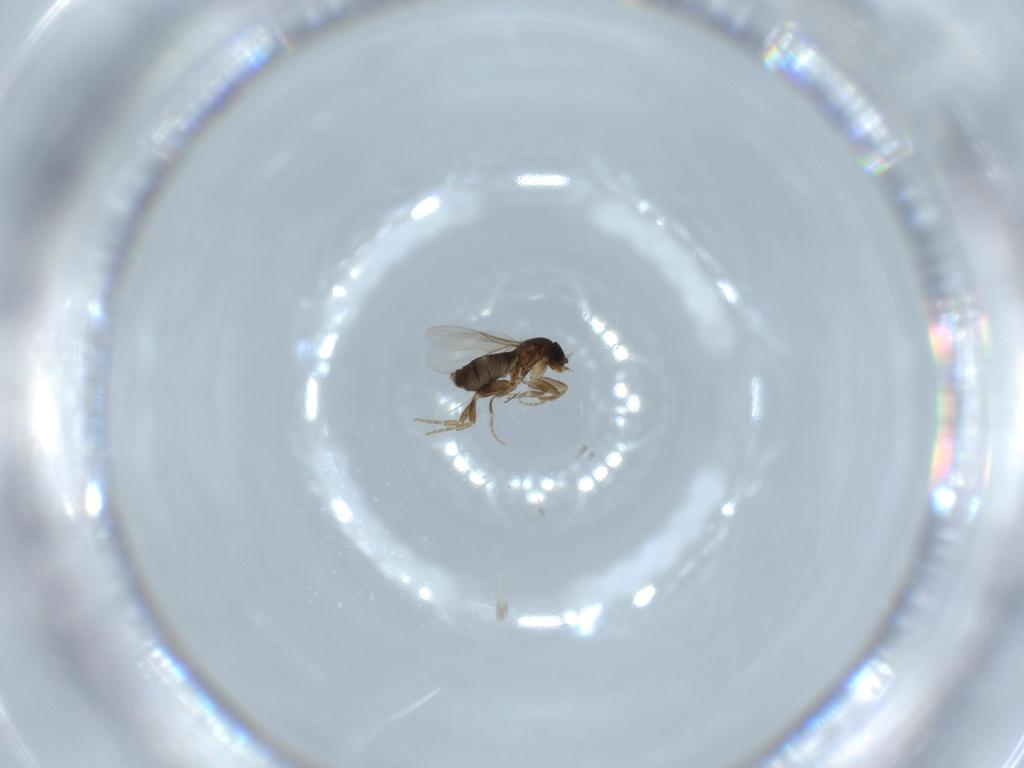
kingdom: Animalia
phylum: Arthropoda
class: Insecta
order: Diptera
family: Phoridae
